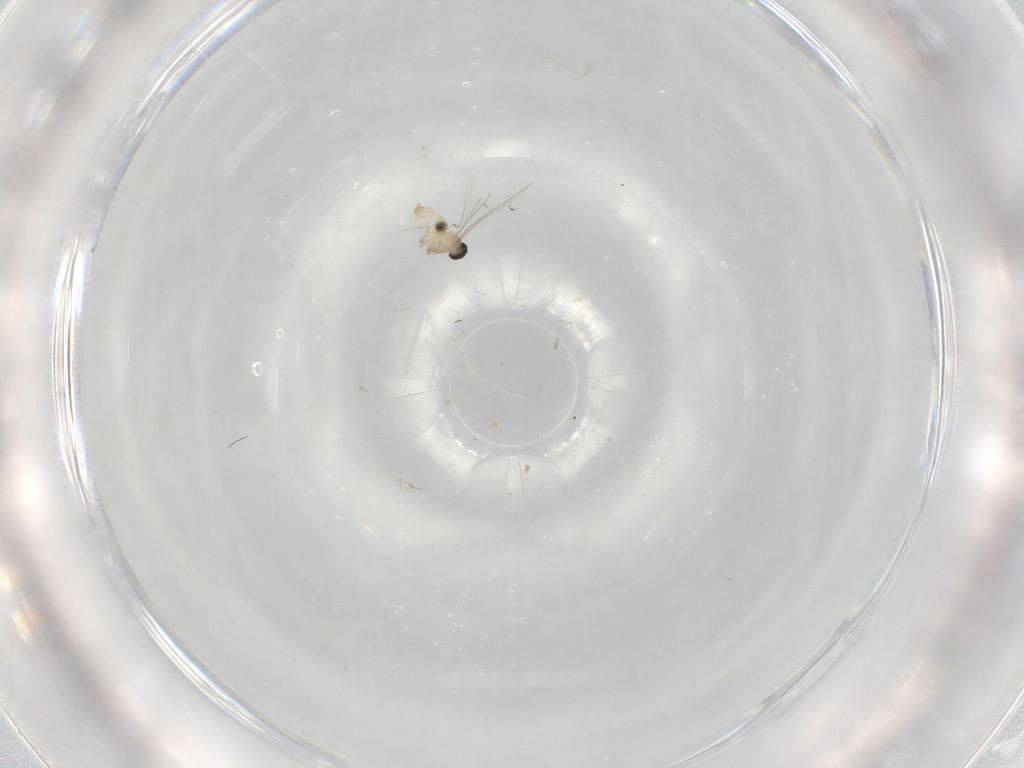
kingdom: Animalia
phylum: Arthropoda
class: Insecta
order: Diptera
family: Cecidomyiidae
